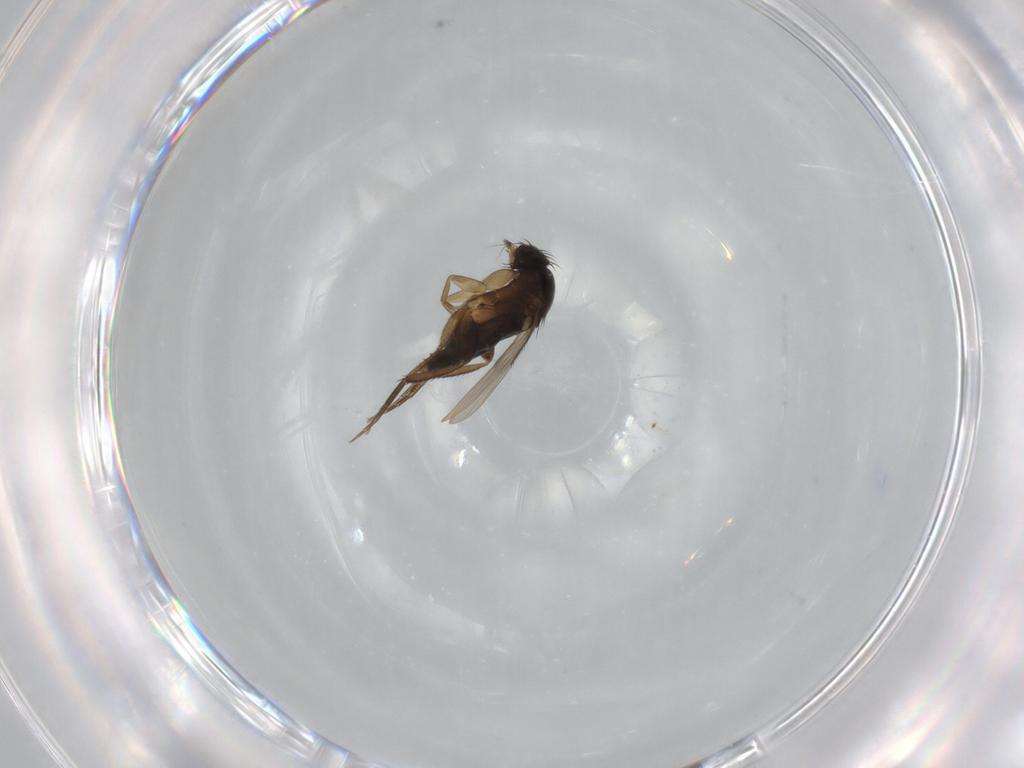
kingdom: Animalia
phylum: Arthropoda
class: Insecta
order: Diptera
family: Phoridae
